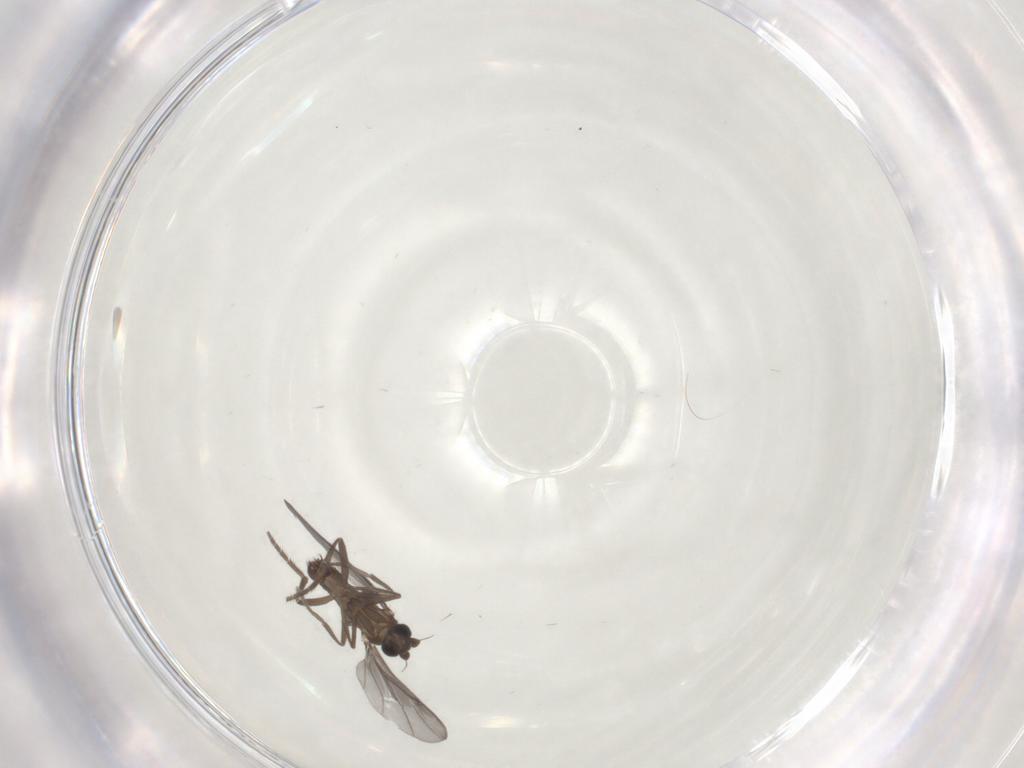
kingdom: Animalia
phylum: Arthropoda
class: Insecta
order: Diptera
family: Phoridae
